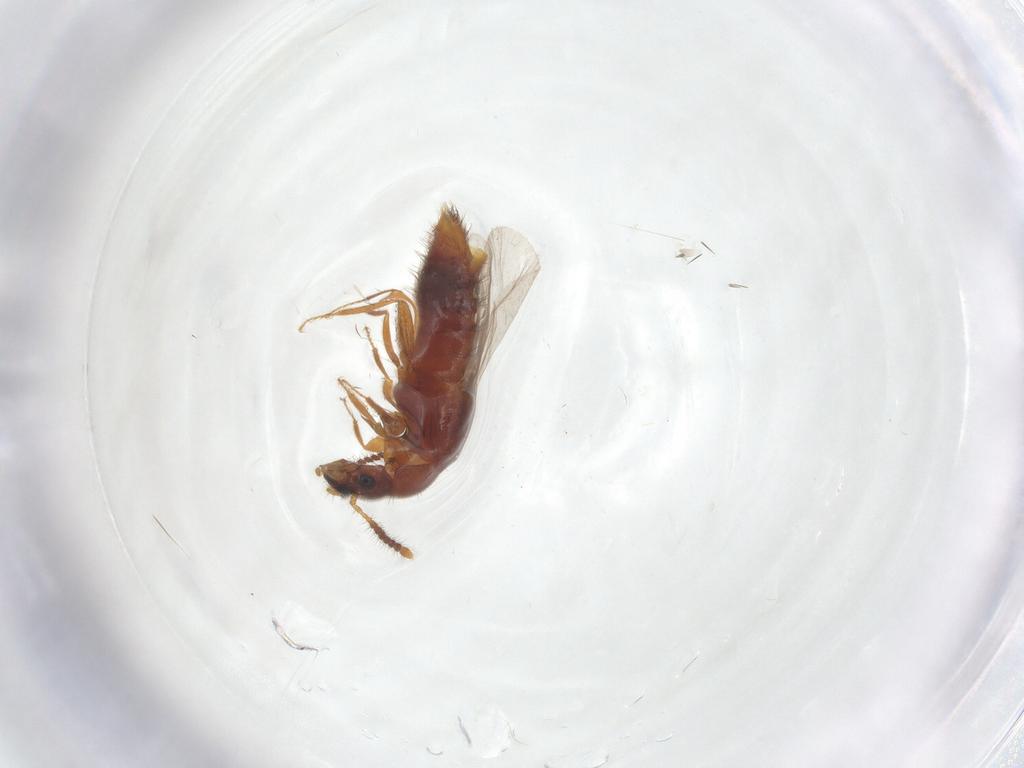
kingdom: Animalia
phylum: Arthropoda
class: Insecta
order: Coleoptera
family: Staphylinidae
